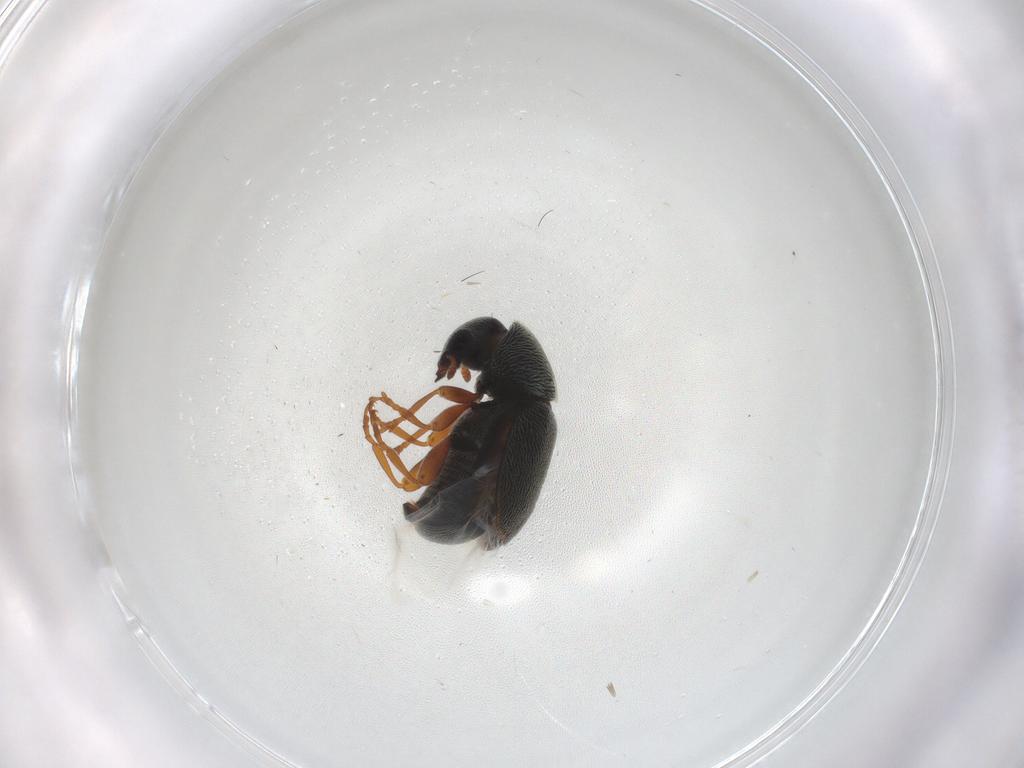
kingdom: Animalia
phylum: Arthropoda
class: Insecta
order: Coleoptera
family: Anthribidae
